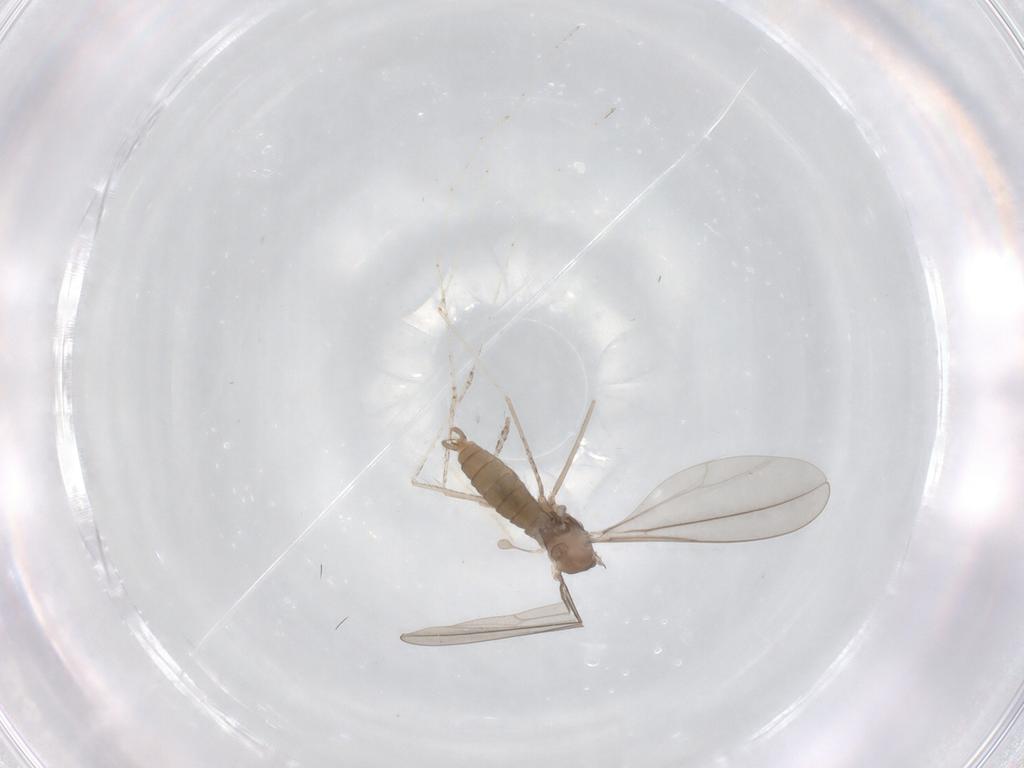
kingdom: Animalia
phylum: Arthropoda
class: Insecta
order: Diptera
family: Cecidomyiidae
